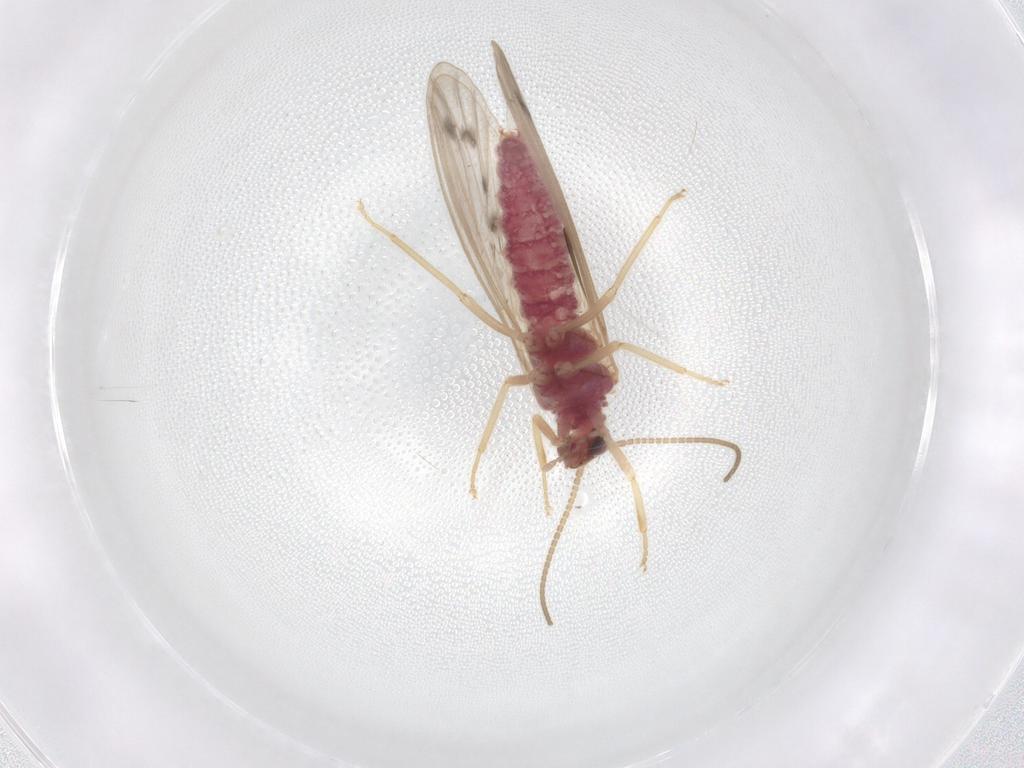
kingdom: Animalia
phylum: Arthropoda
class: Insecta
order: Neuroptera
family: Coniopterygidae
